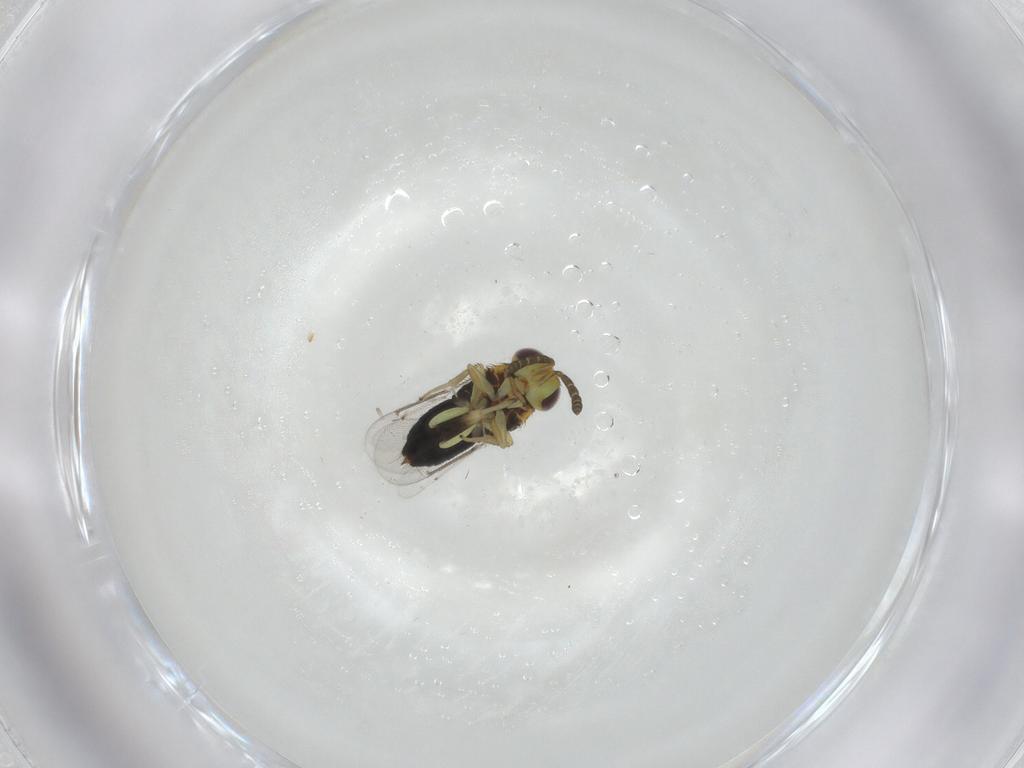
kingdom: Animalia
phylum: Arthropoda
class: Insecta
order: Hymenoptera
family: Aphelinidae
